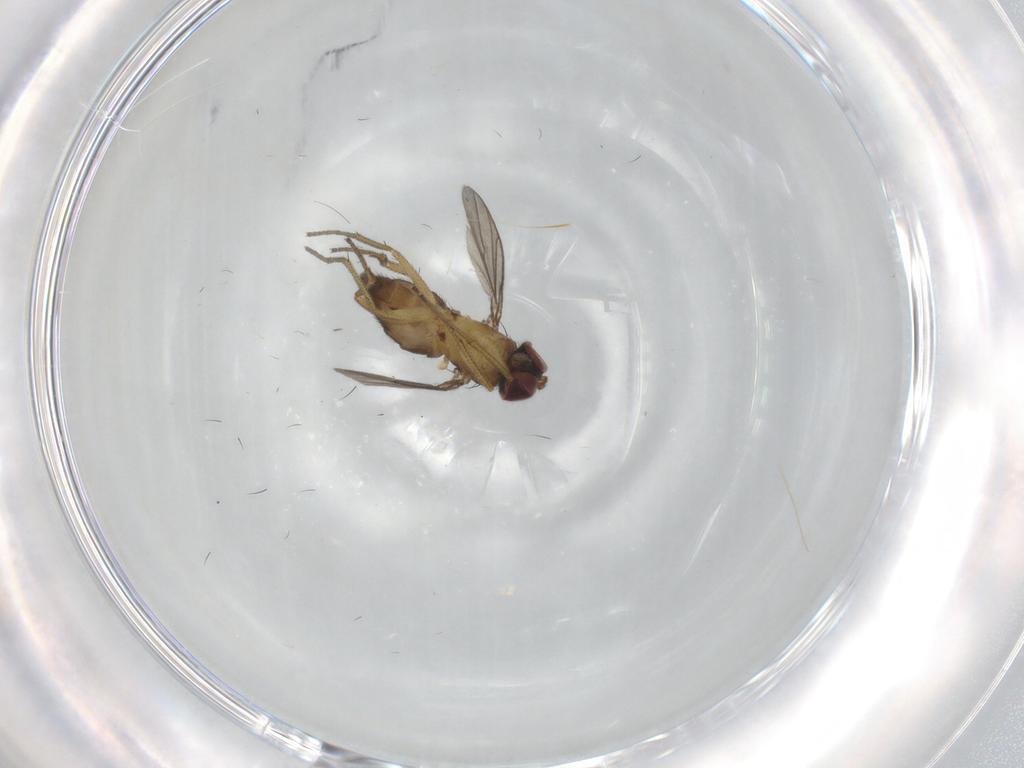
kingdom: Animalia
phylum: Arthropoda
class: Insecta
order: Diptera
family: Dolichopodidae
